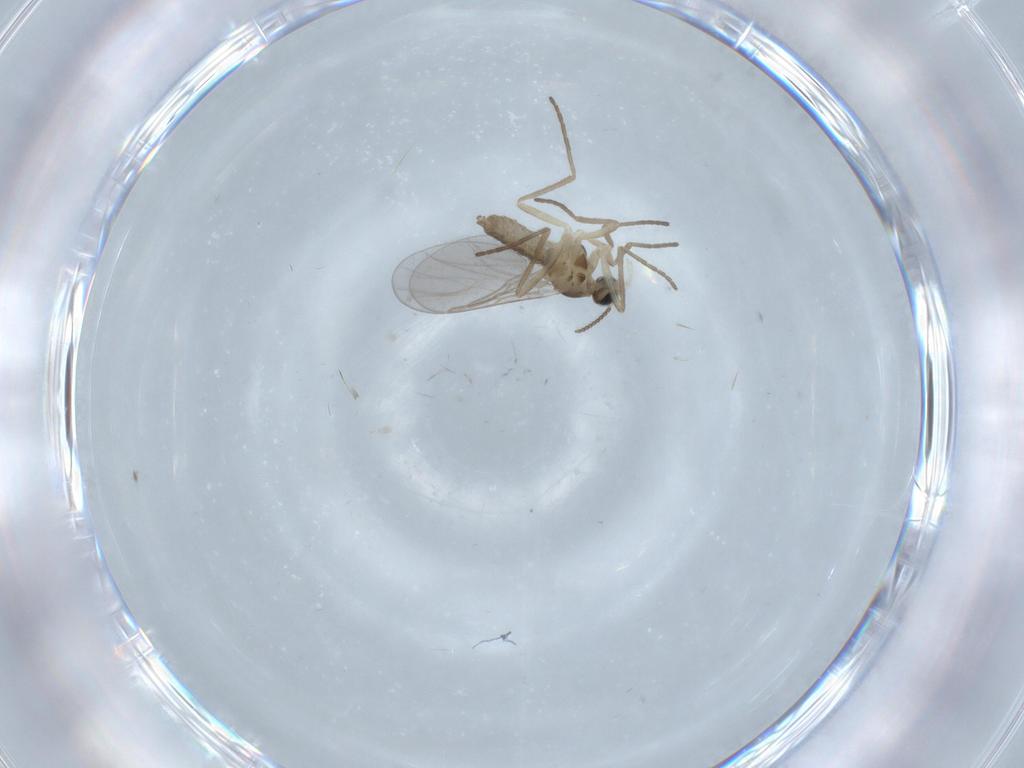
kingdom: Animalia
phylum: Arthropoda
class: Insecta
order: Diptera
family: Cecidomyiidae
